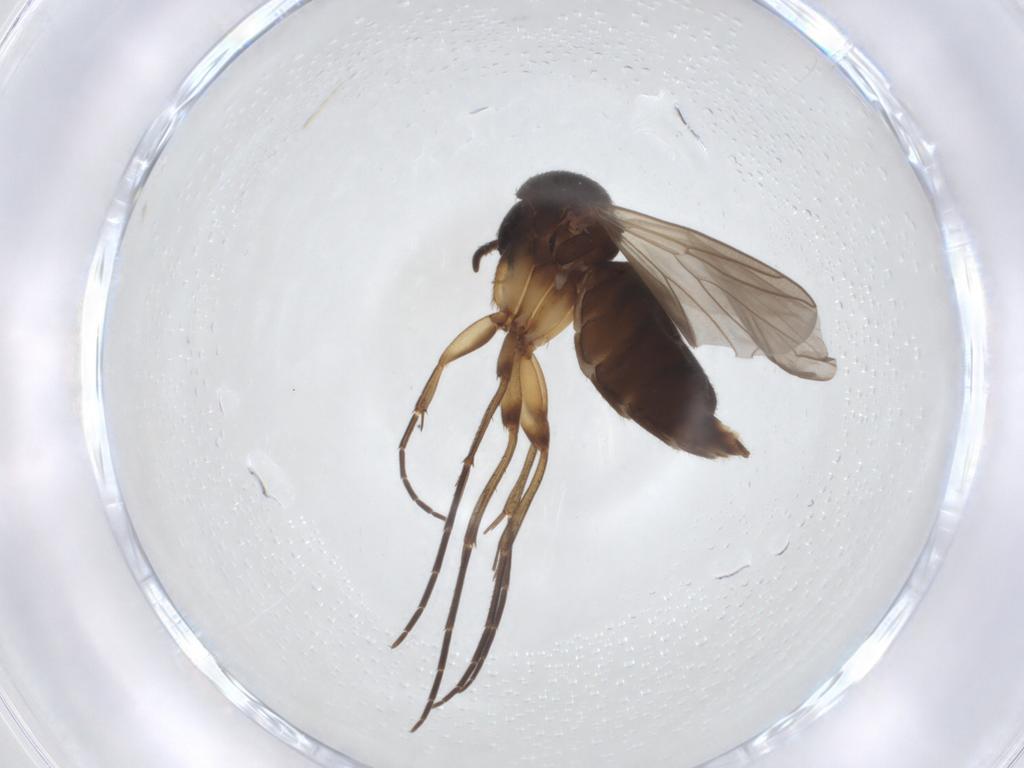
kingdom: Animalia
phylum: Arthropoda
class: Insecta
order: Diptera
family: Mycetophilidae
